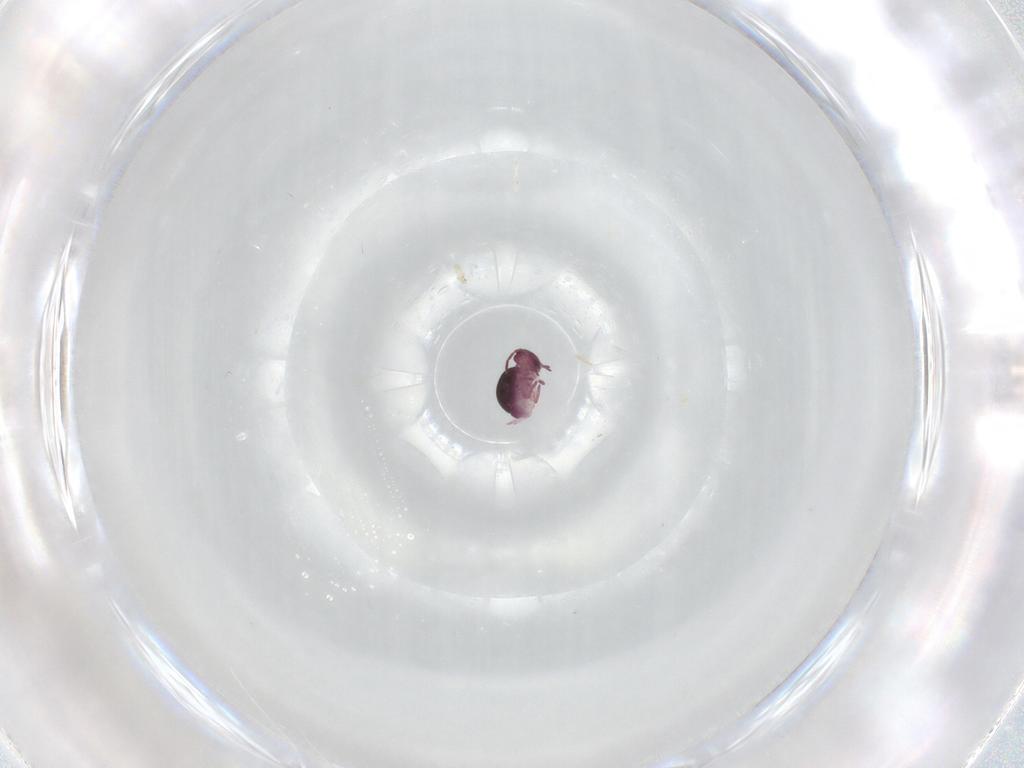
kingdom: Animalia
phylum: Arthropoda
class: Collembola
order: Symphypleona
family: Sminthurididae
